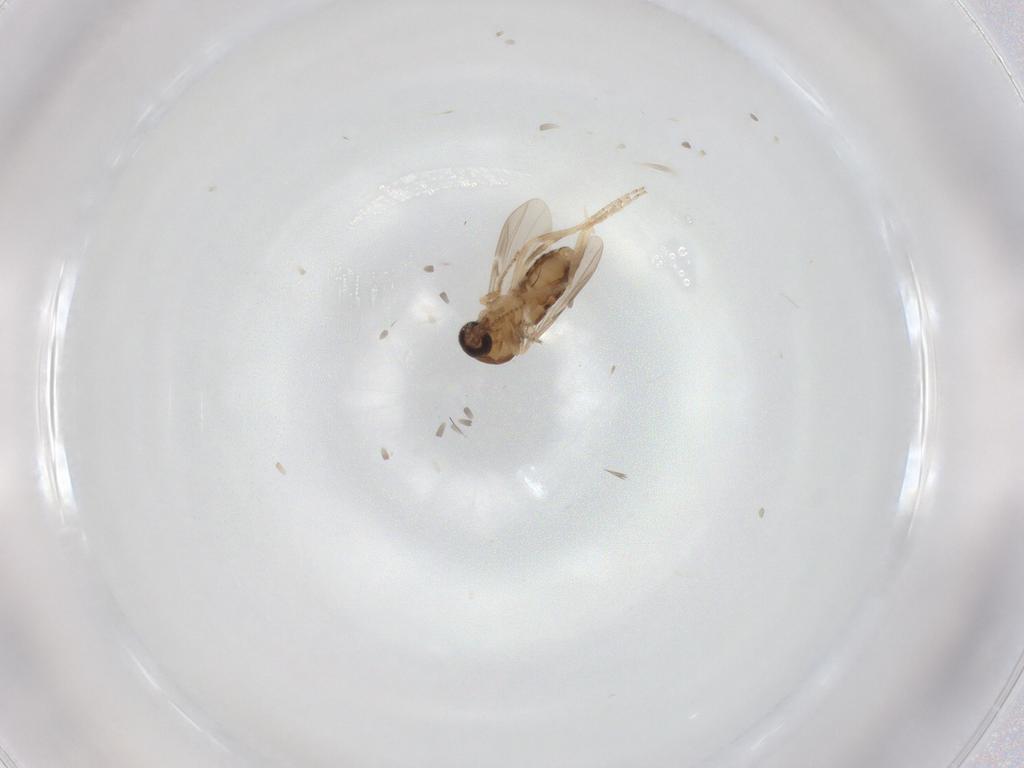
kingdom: Animalia
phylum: Arthropoda
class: Insecta
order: Diptera
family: Ceratopogonidae
